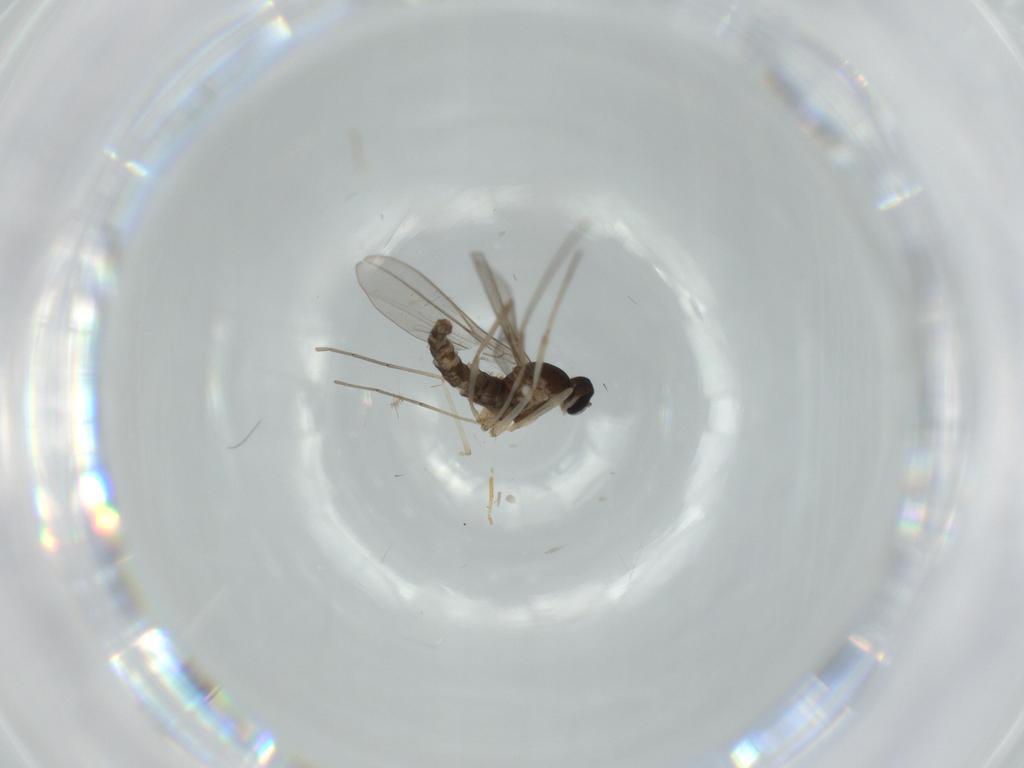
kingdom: Animalia
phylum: Arthropoda
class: Insecta
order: Diptera
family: Cecidomyiidae
